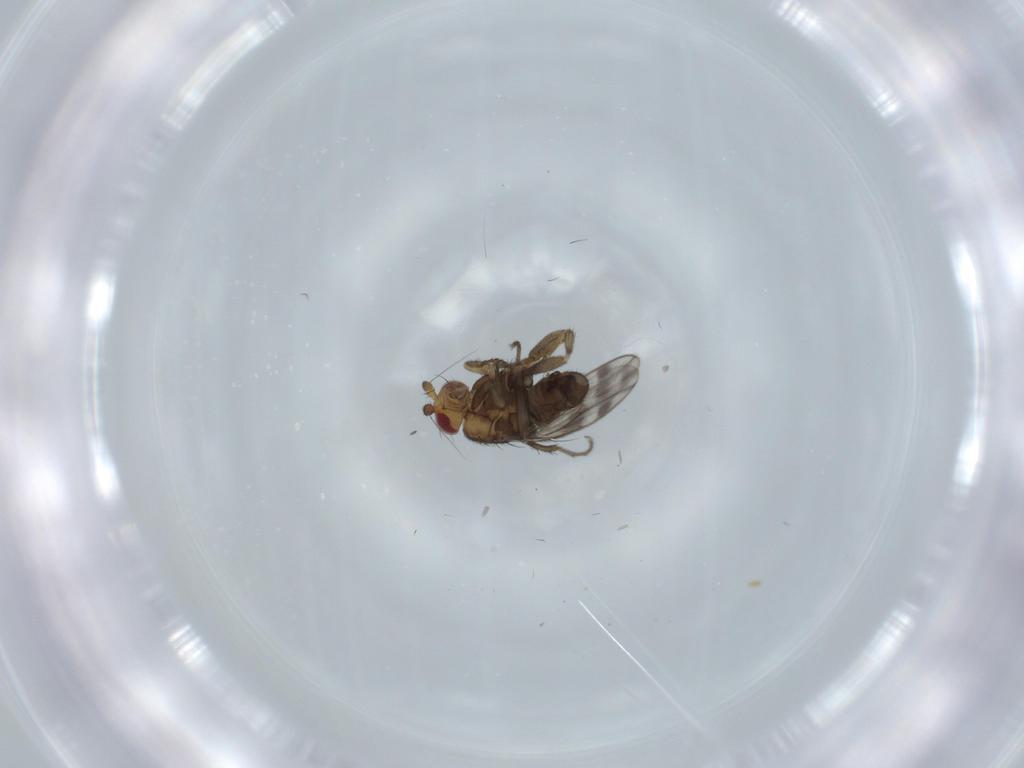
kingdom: Animalia
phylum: Arthropoda
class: Insecta
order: Diptera
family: Sphaeroceridae
